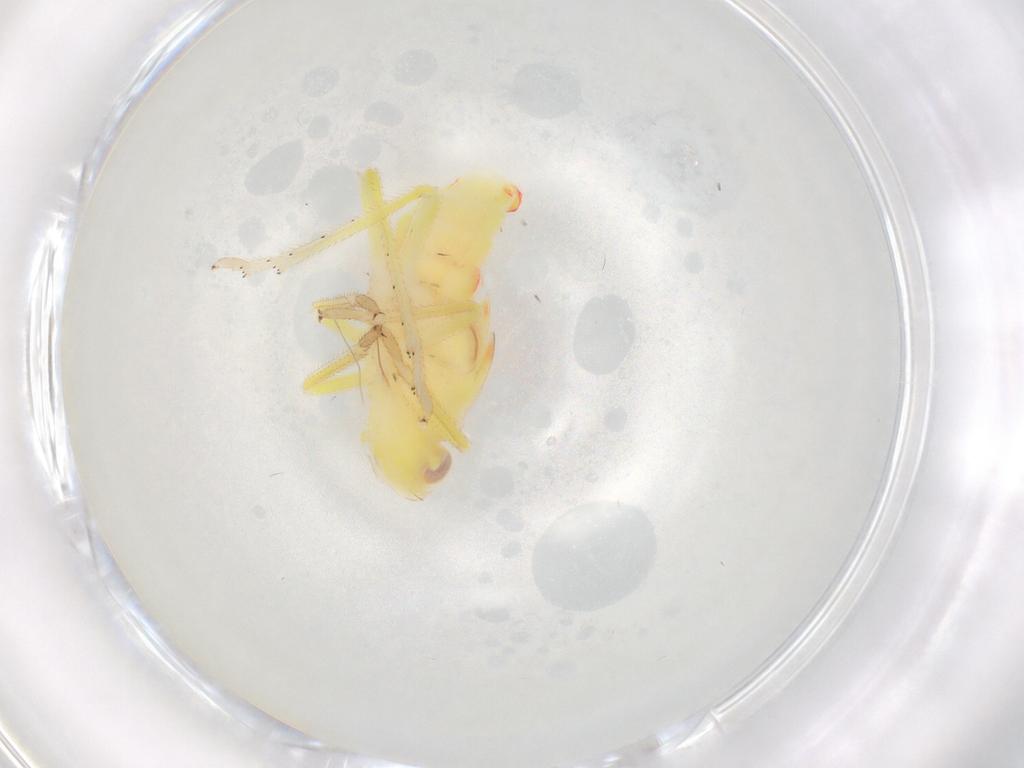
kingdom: Animalia
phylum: Arthropoda
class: Insecta
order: Hemiptera
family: Tropiduchidae
